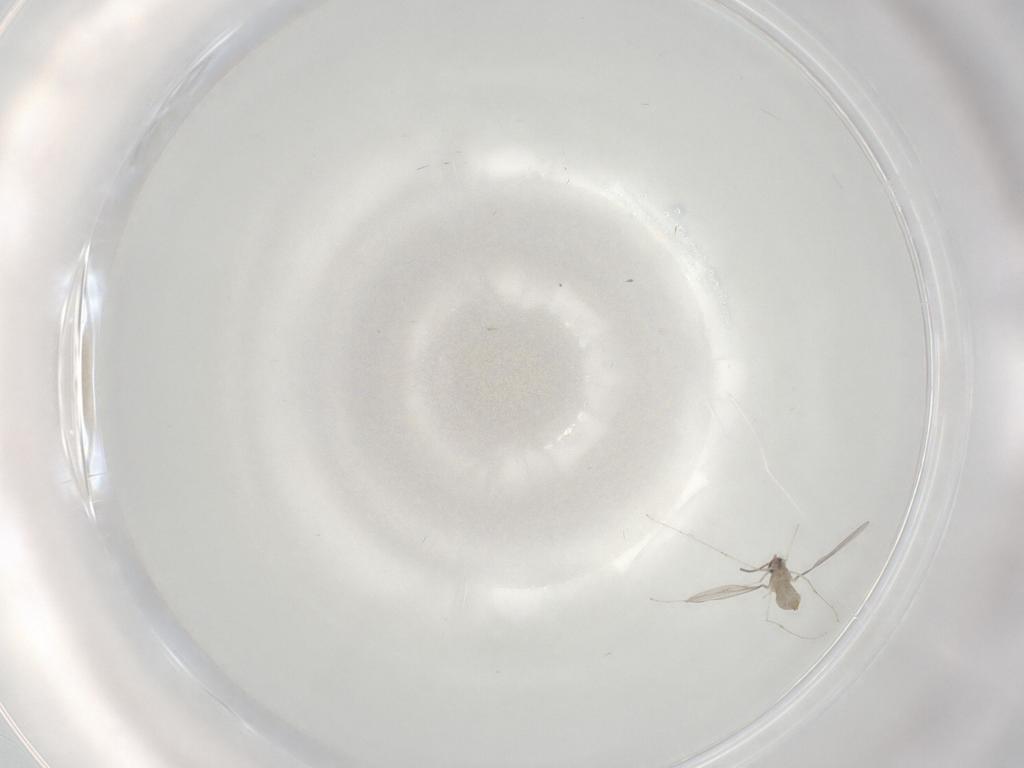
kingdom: Animalia
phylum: Arthropoda
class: Insecta
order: Diptera
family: Cecidomyiidae
